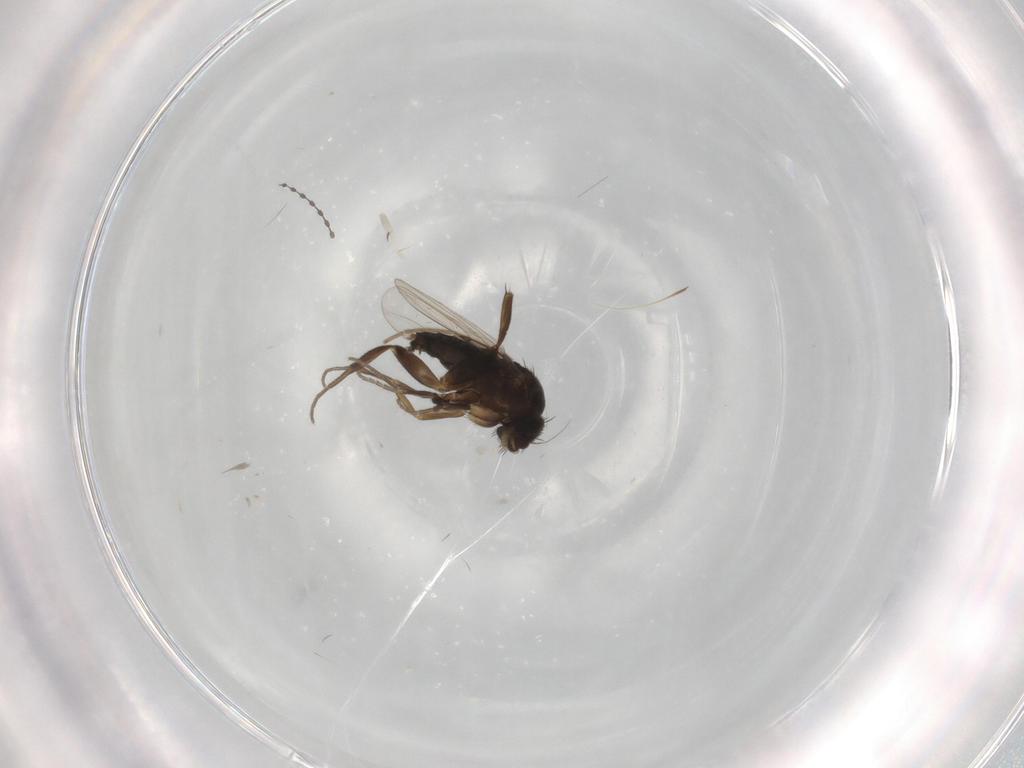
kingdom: Animalia
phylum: Arthropoda
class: Insecta
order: Diptera
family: Phoridae
